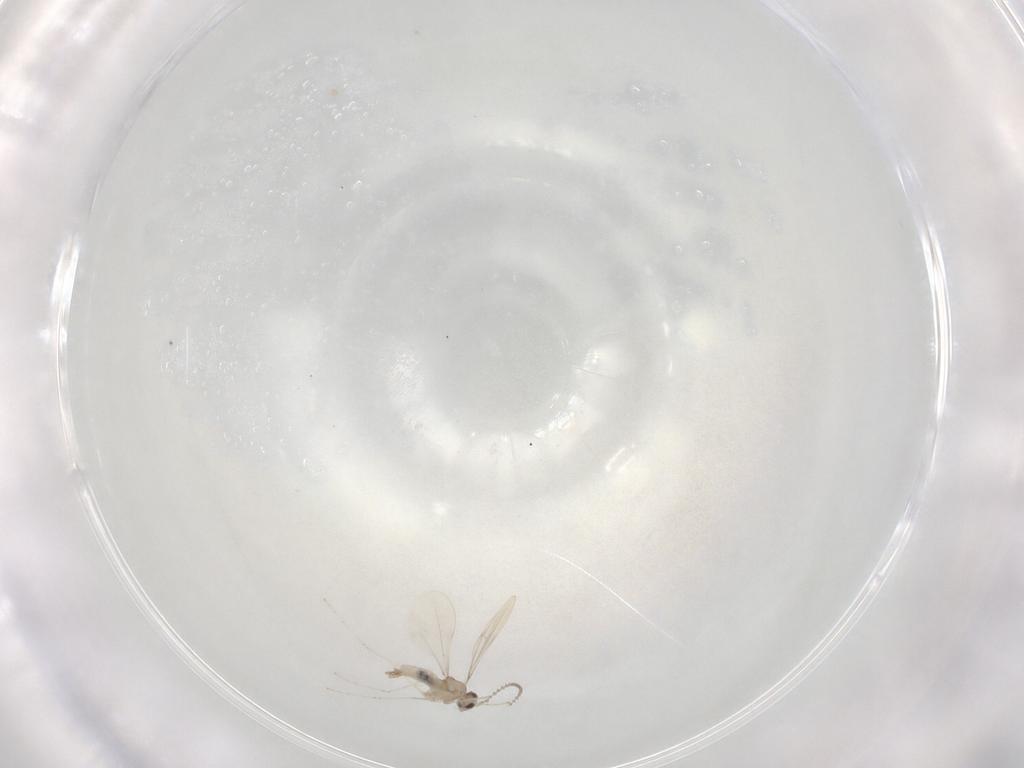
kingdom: Animalia
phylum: Arthropoda
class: Insecta
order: Diptera
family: Cecidomyiidae
